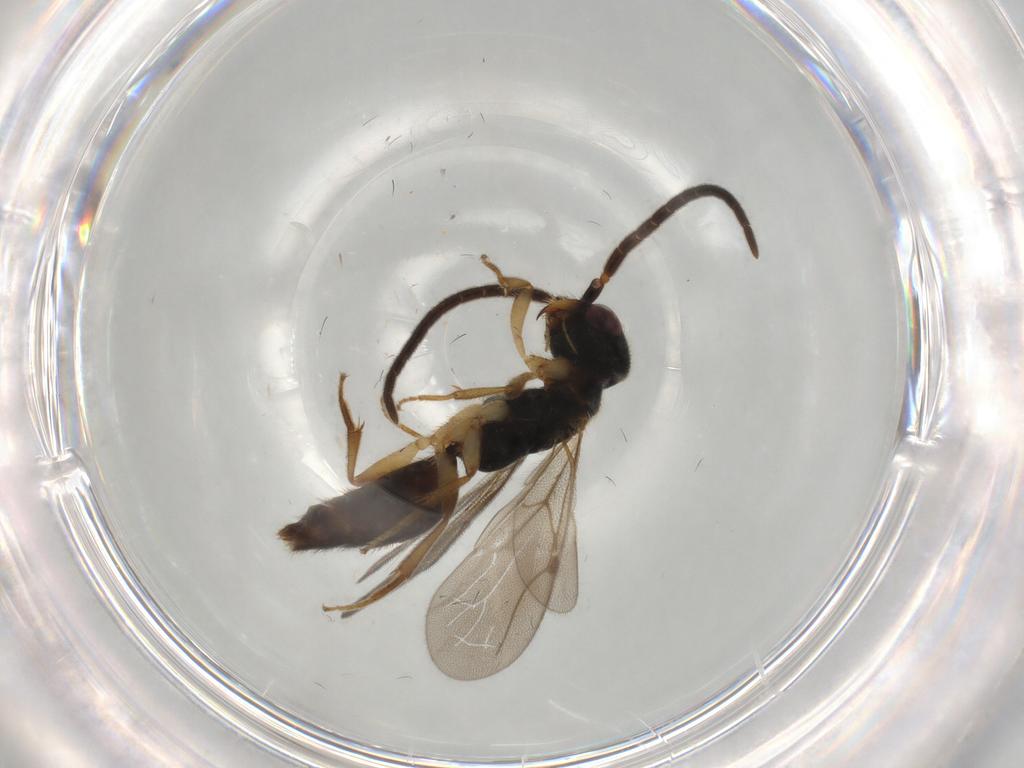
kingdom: Animalia
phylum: Arthropoda
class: Insecta
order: Hymenoptera
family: Bethylidae
